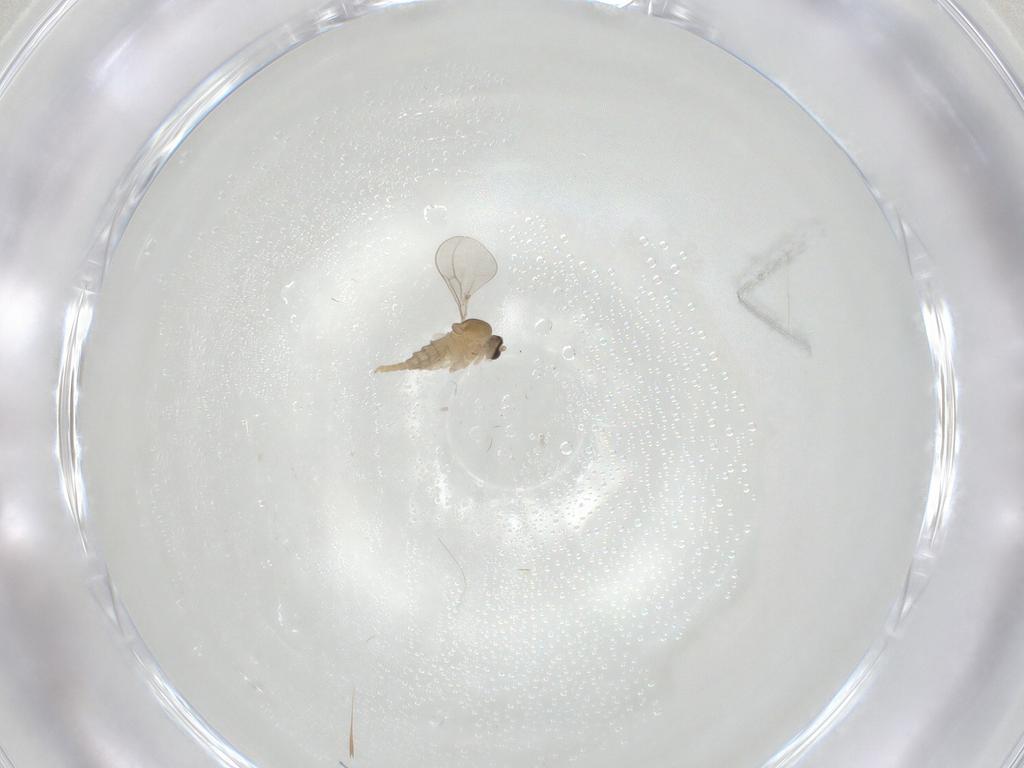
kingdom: Animalia
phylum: Arthropoda
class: Insecta
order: Diptera
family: Cecidomyiidae
